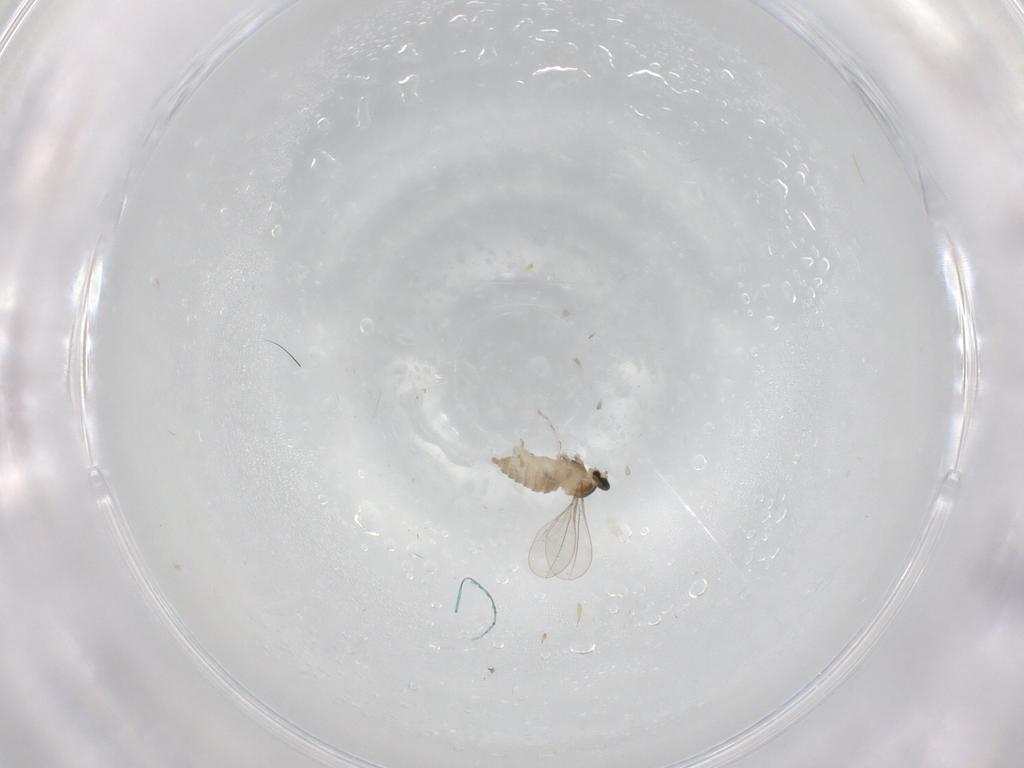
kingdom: Animalia
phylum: Arthropoda
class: Insecta
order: Diptera
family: Cecidomyiidae
